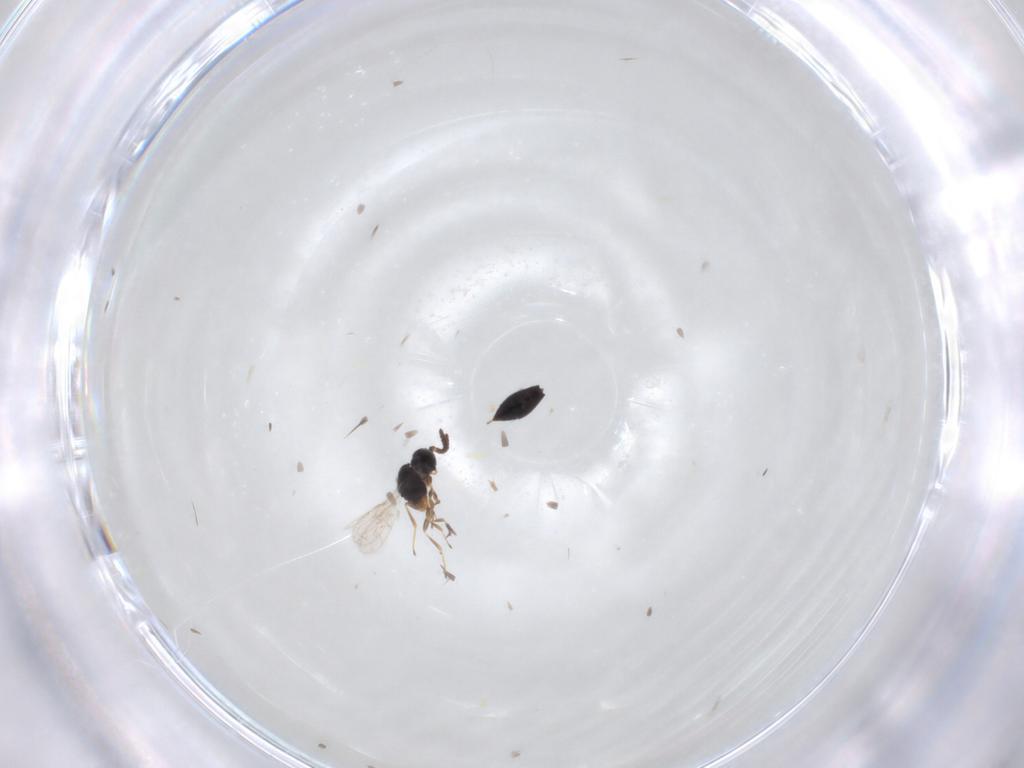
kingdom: Animalia
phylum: Arthropoda
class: Insecta
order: Hymenoptera
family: Scelionidae
